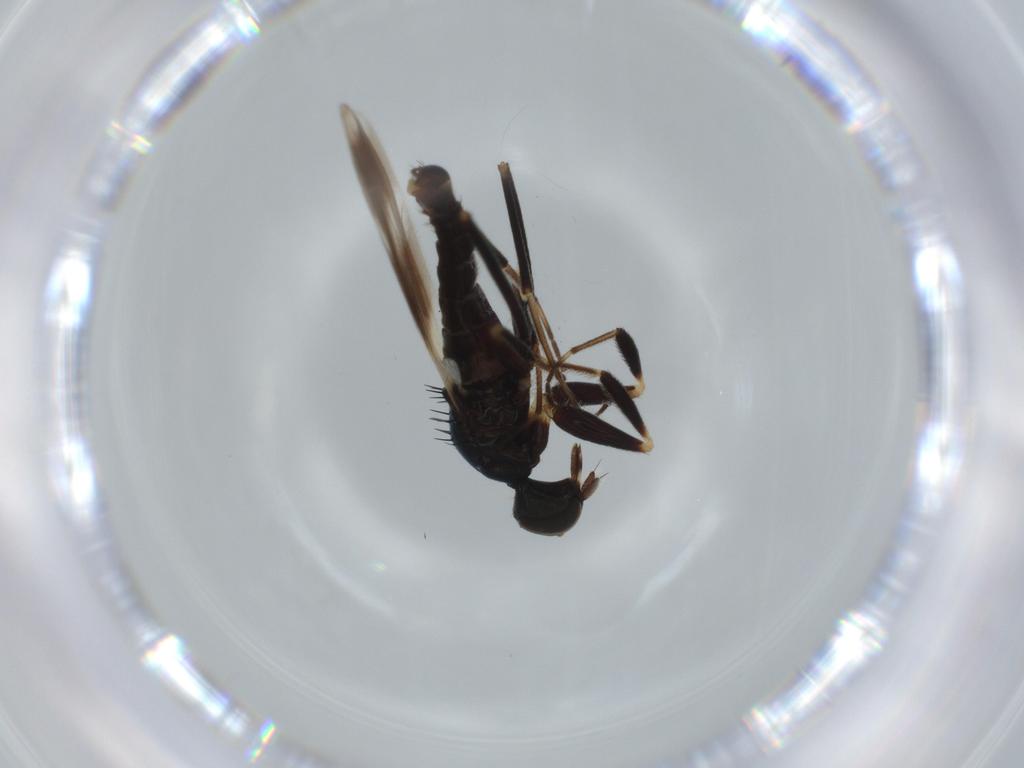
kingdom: Animalia
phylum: Arthropoda
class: Insecta
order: Diptera
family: Hybotidae
